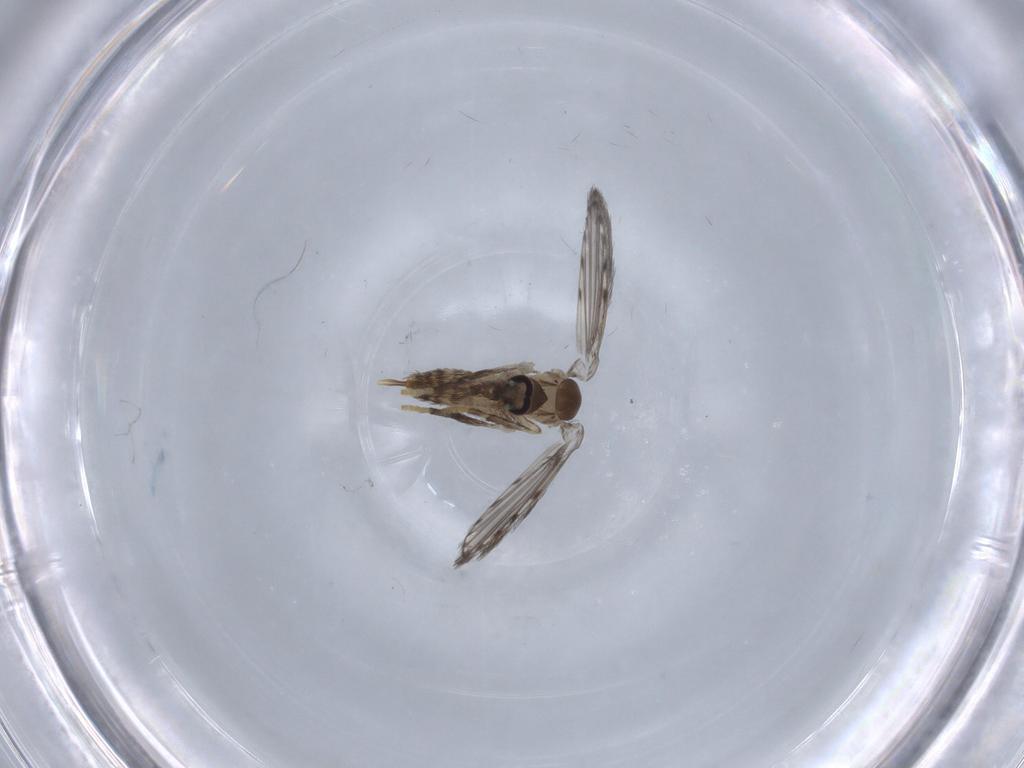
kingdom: Animalia
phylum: Arthropoda
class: Insecta
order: Diptera
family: Psychodidae
